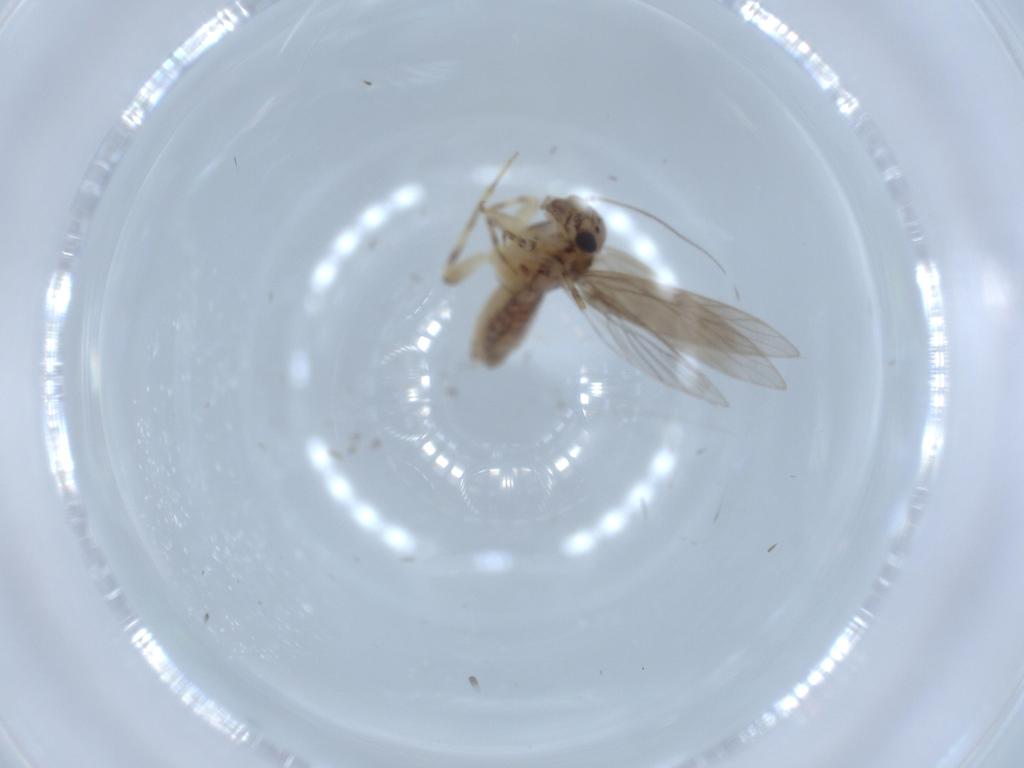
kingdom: Animalia
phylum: Arthropoda
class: Insecta
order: Psocodea
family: Lepidopsocidae
